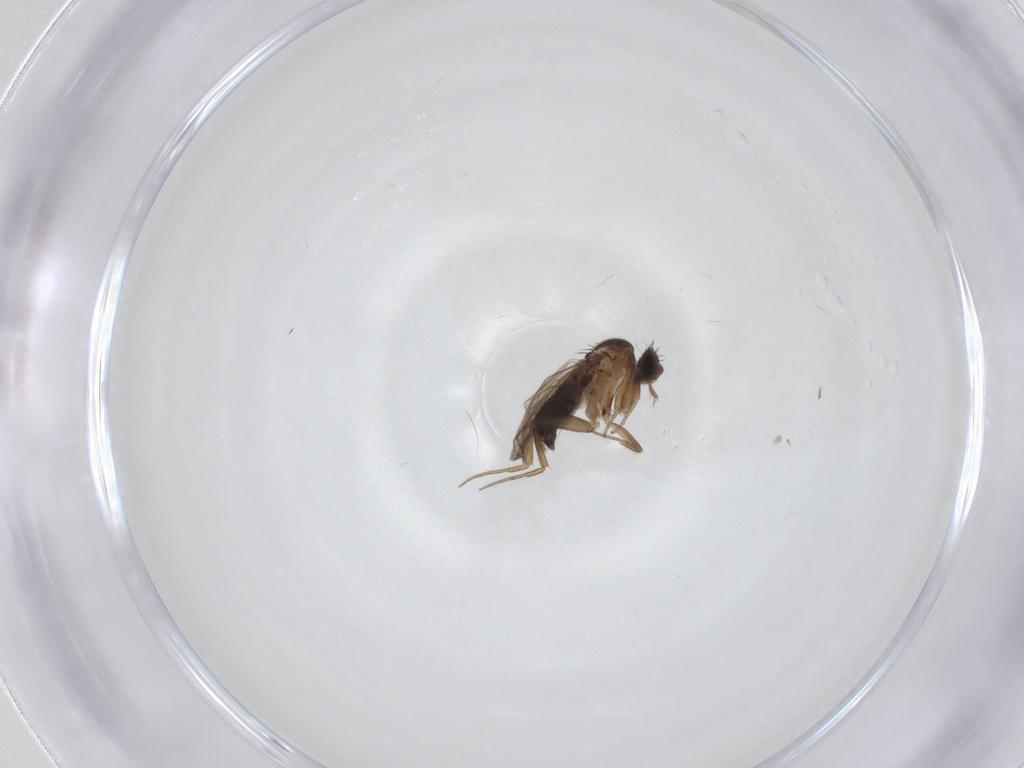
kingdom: Animalia
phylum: Arthropoda
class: Insecta
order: Diptera
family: Phoridae
